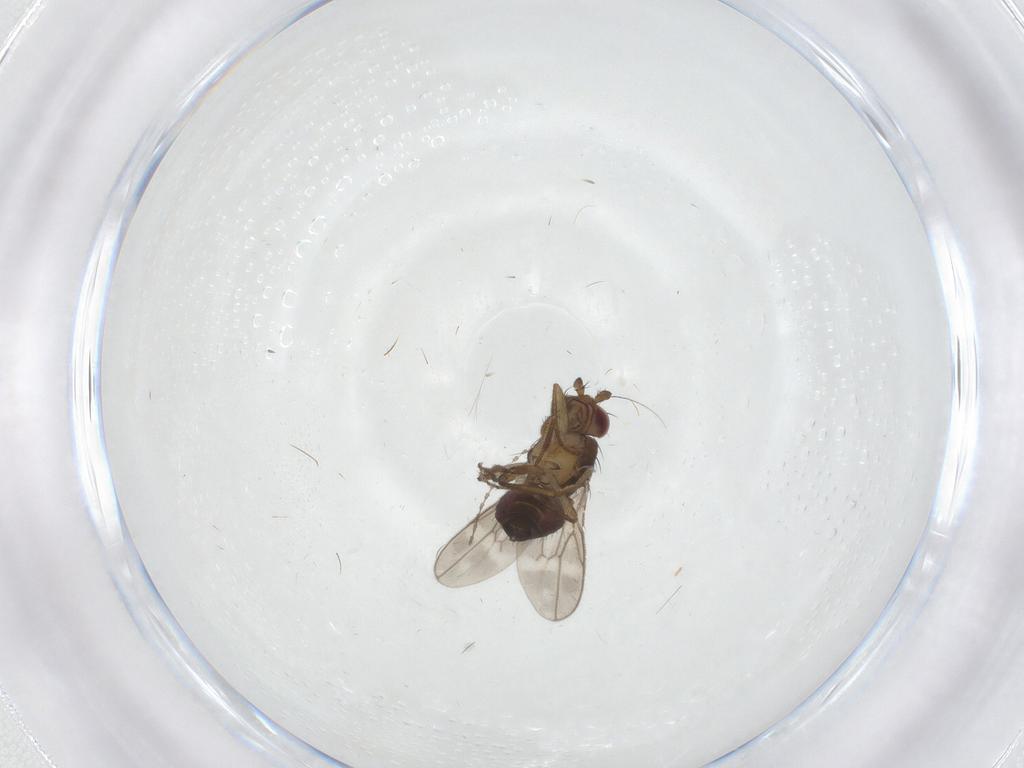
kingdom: Animalia
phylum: Arthropoda
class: Insecta
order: Diptera
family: Sphaeroceridae
